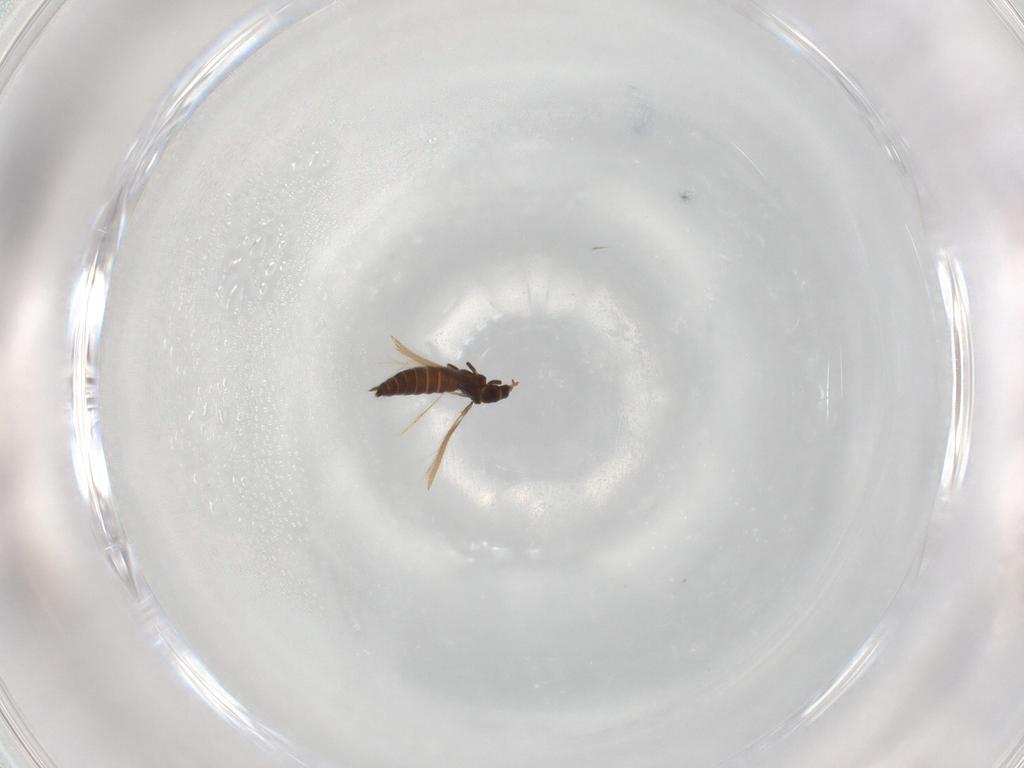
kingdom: Animalia
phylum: Arthropoda
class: Insecta
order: Thysanoptera
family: Thripidae
